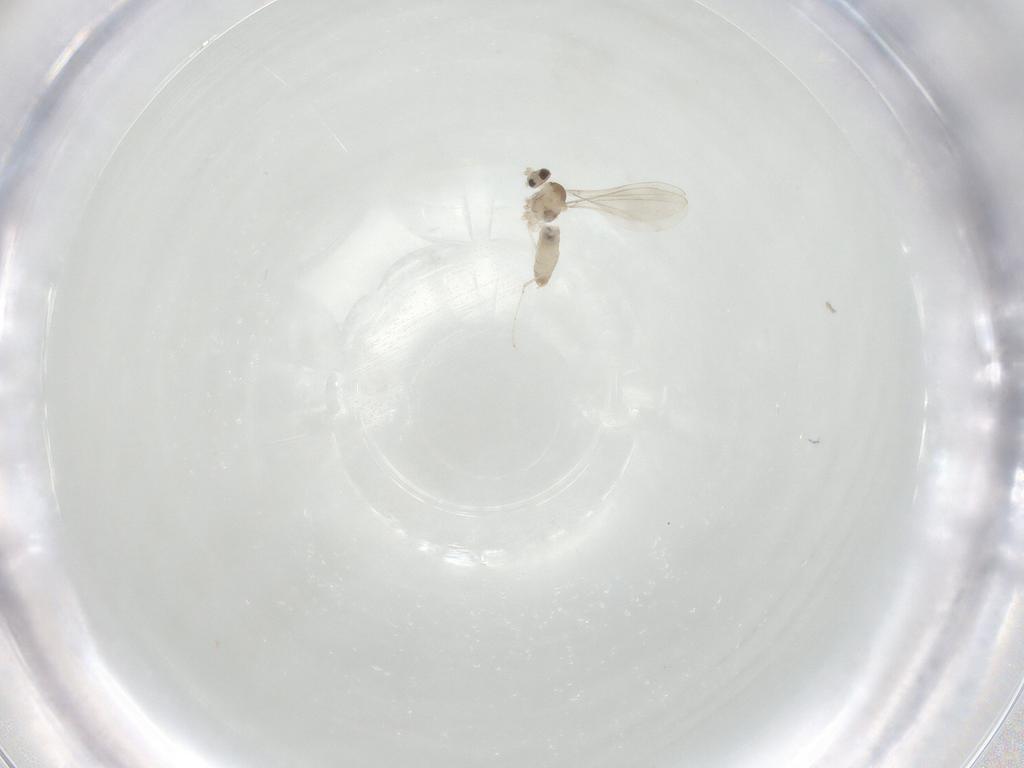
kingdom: Animalia
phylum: Arthropoda
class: Insecta
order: Diptera
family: Cecidomyiidae
